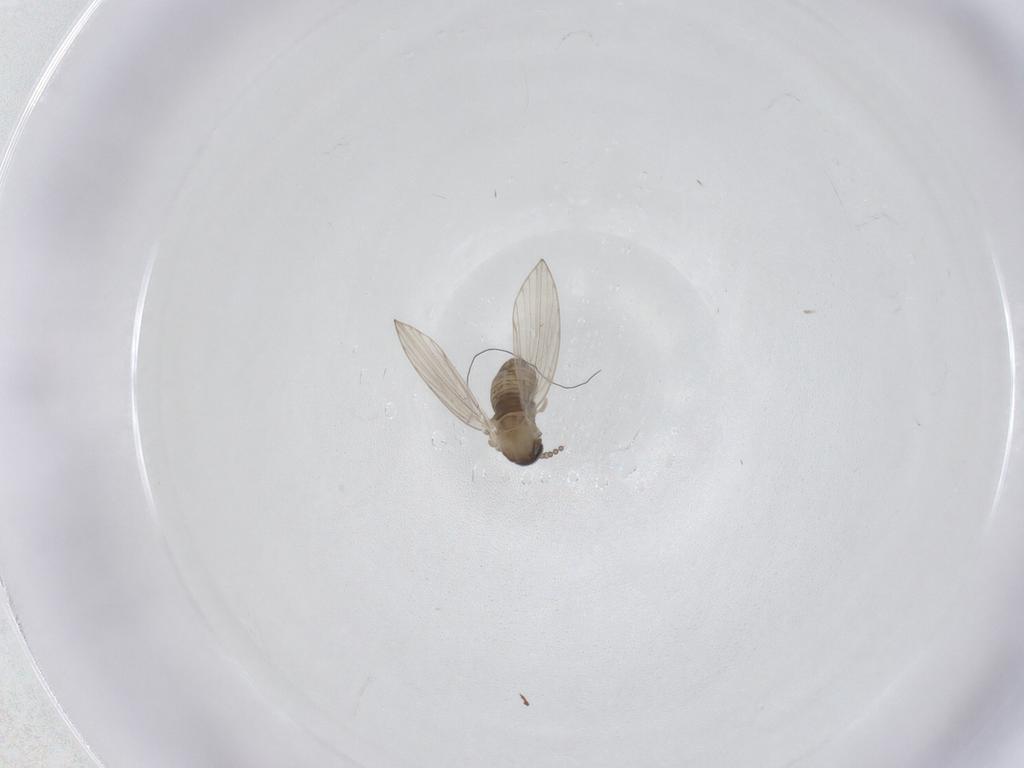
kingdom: Animalia
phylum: Arthropoda
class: Insecta
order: Diptera
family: Psychodidae
